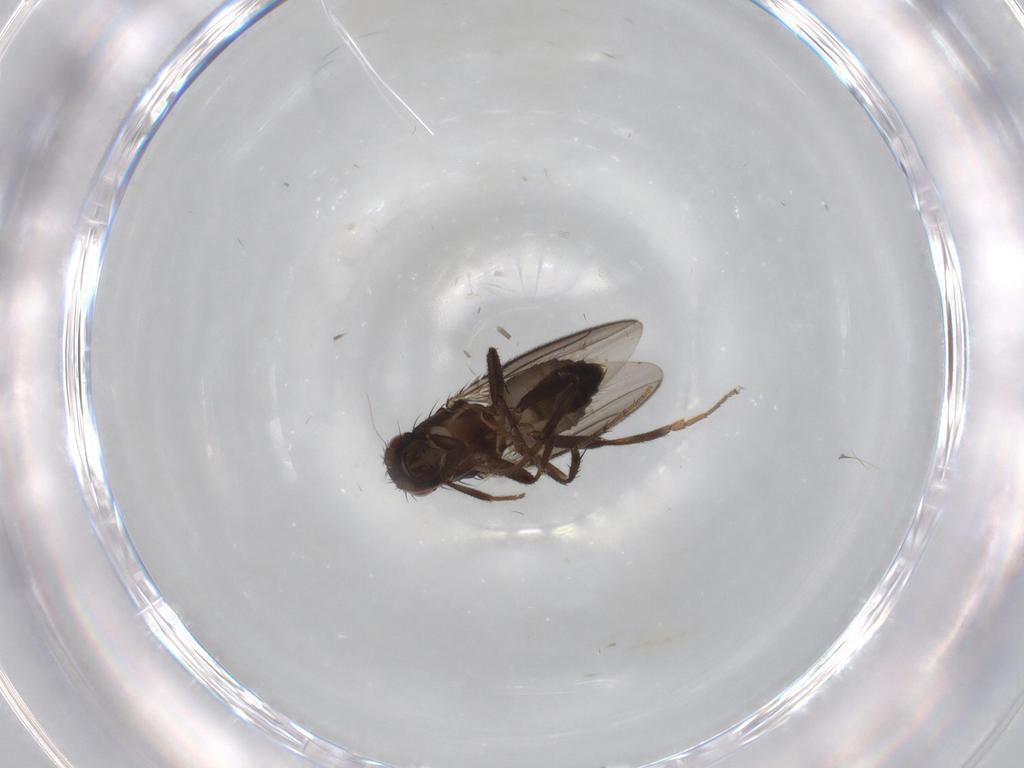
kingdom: Animalia
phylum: Arthropoda
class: Insecta
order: Diptera
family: Sphaeroceridae
